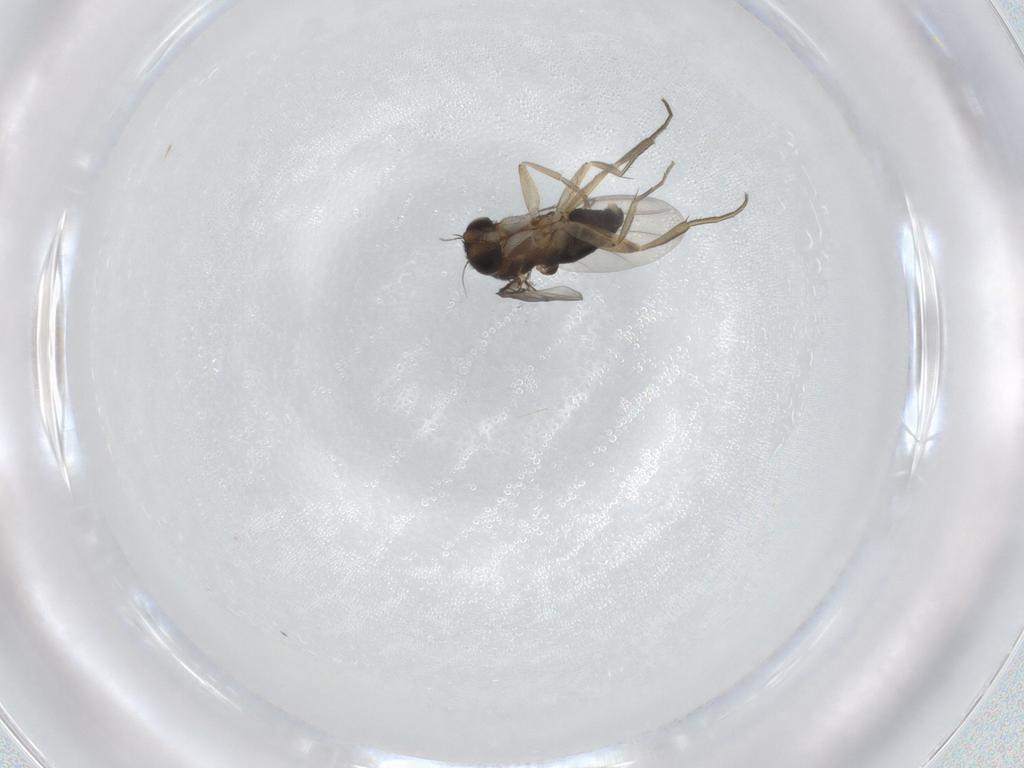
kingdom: Animalia
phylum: Arthropoda
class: Insecta
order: Diptera
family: Phoridae
